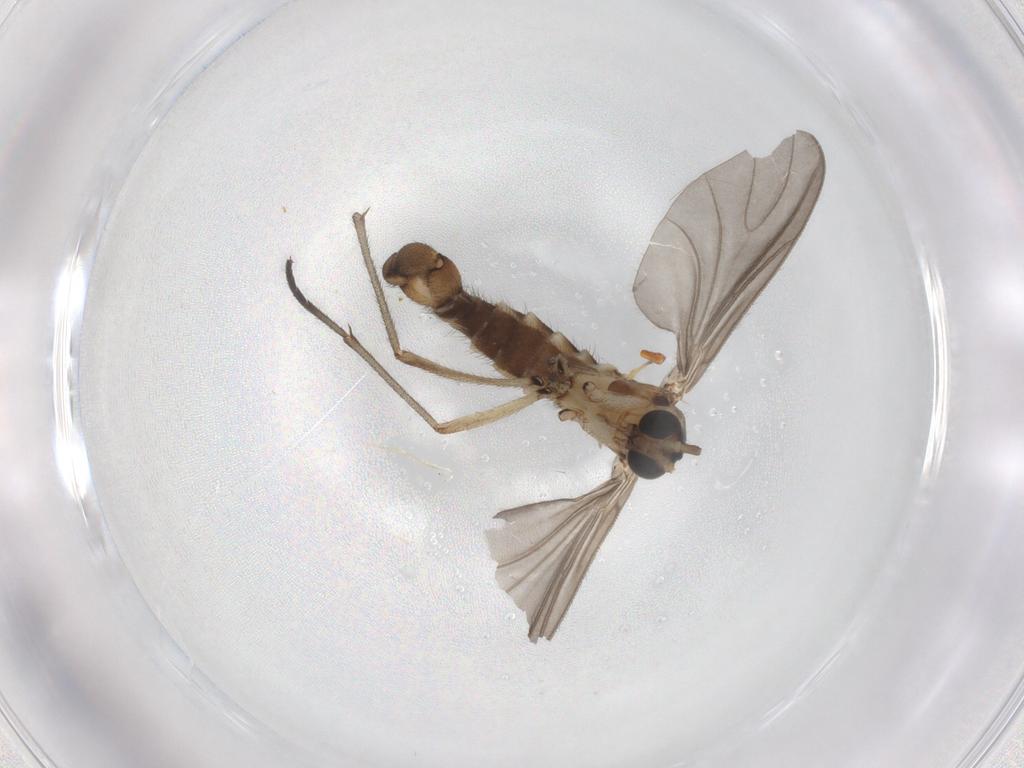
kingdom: Animalia
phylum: Arthropoda
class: Insecta
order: Diptera
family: Sciaridae
